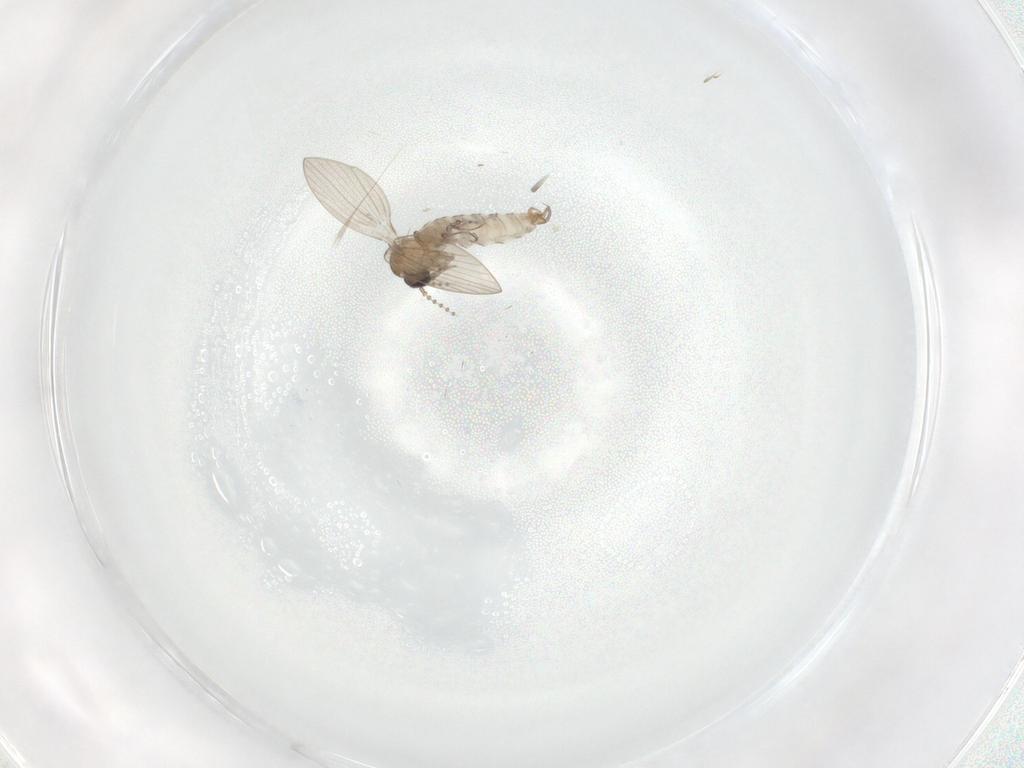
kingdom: Animalia
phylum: Arthropoda
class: Insecta
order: Diptera
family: Psychodidae
